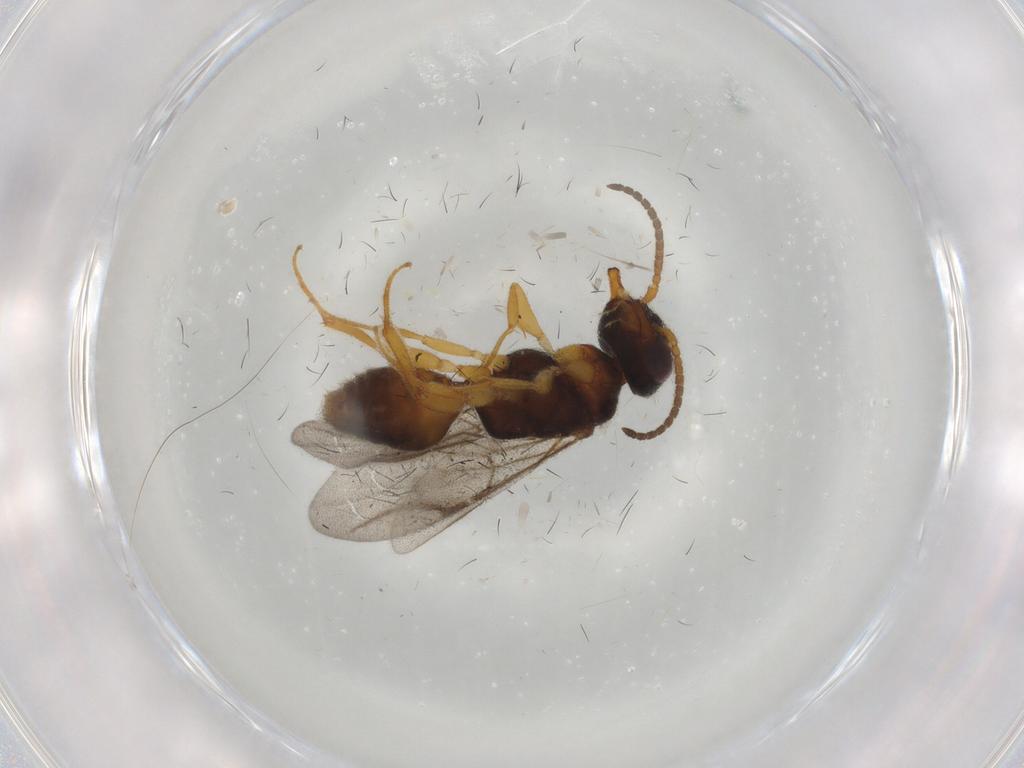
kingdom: Animalia
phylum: Arthropoda
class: Insecta
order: Hymenoptera
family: Bethylidae
